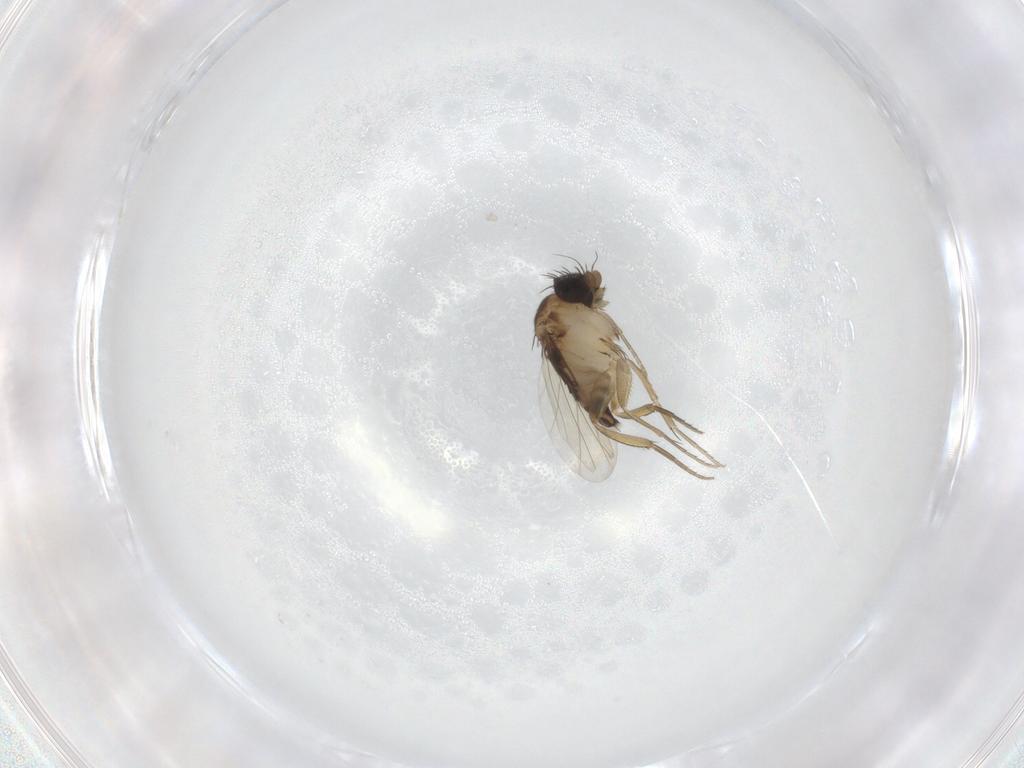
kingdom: Animalia
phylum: Arthropoda
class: Insecta
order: Diptera
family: Phoridae
